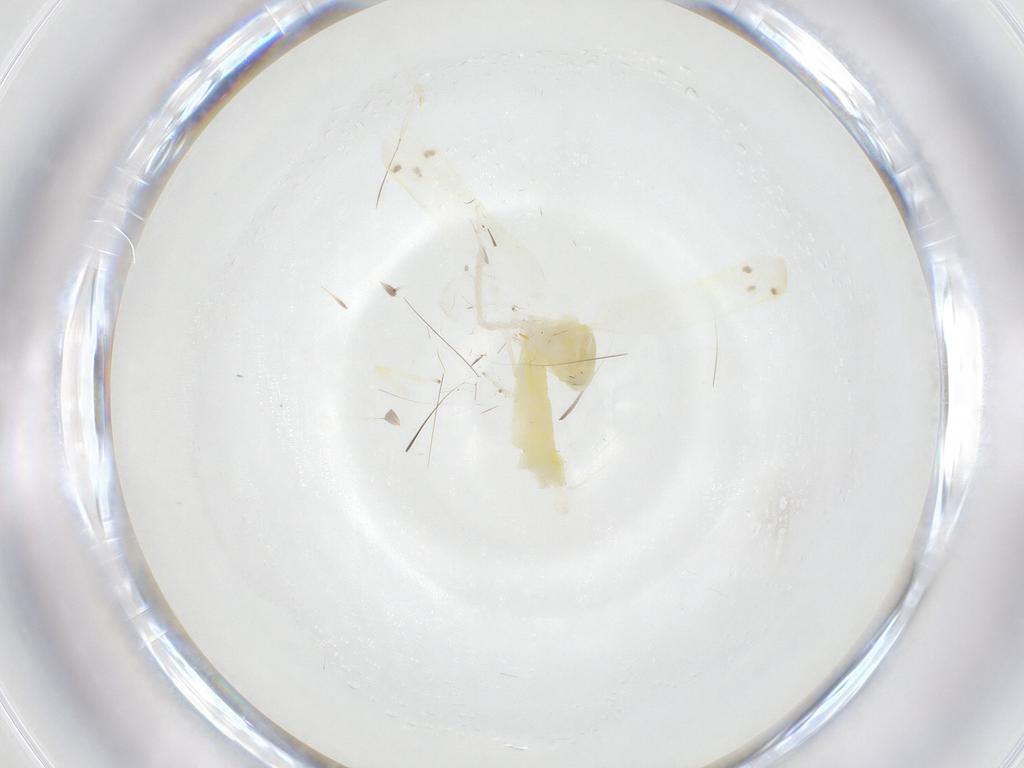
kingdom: Animalia
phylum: Arthropoda
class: Insecta
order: Hemiptera
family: Cicadellidae
